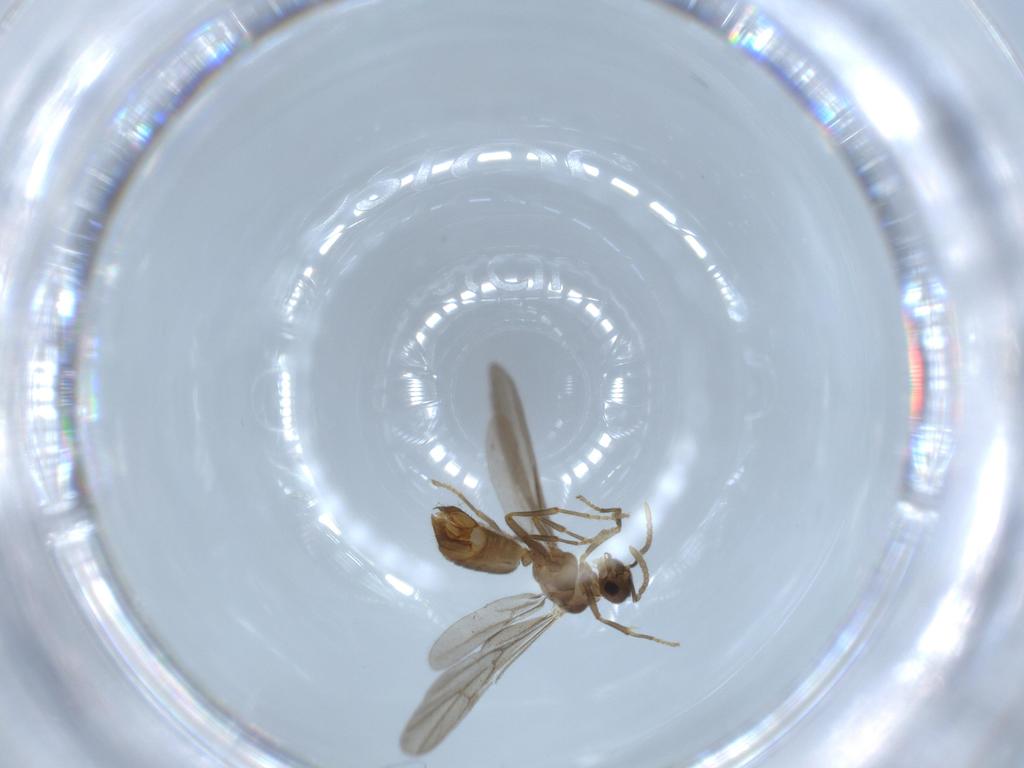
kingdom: Animalia
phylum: Arthropoda
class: Insecta
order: Hymenoptera
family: Formicidae
